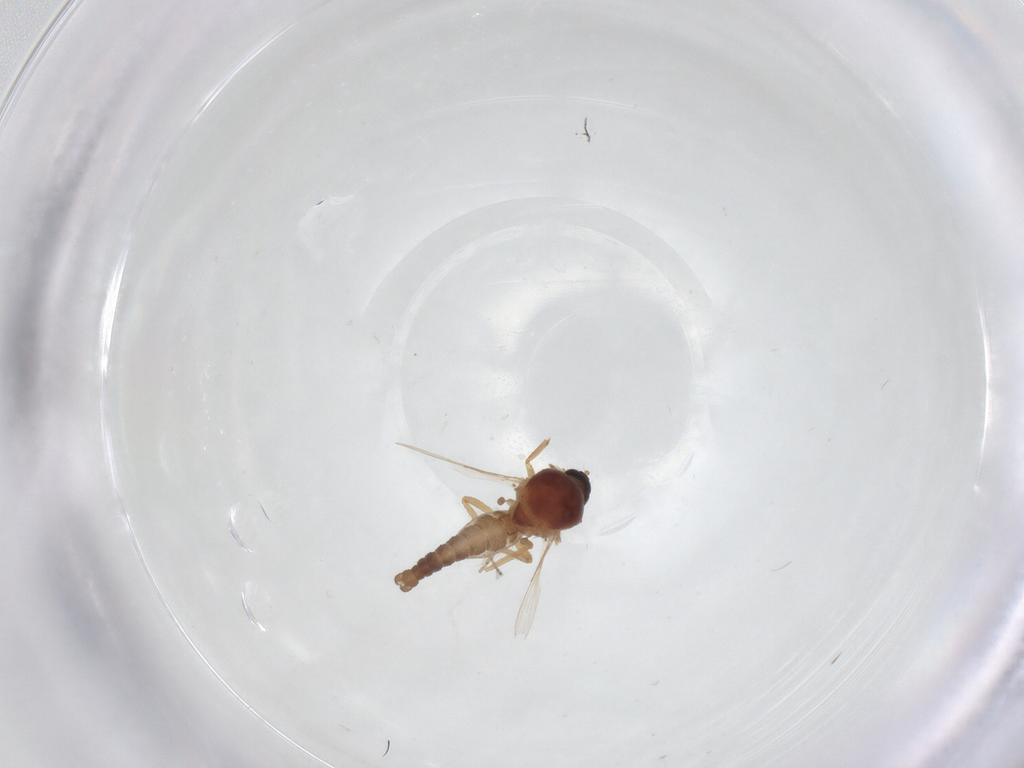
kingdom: Animalia
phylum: Arthropoda
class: Insecta
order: Diptera
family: Ceratopogonidae
